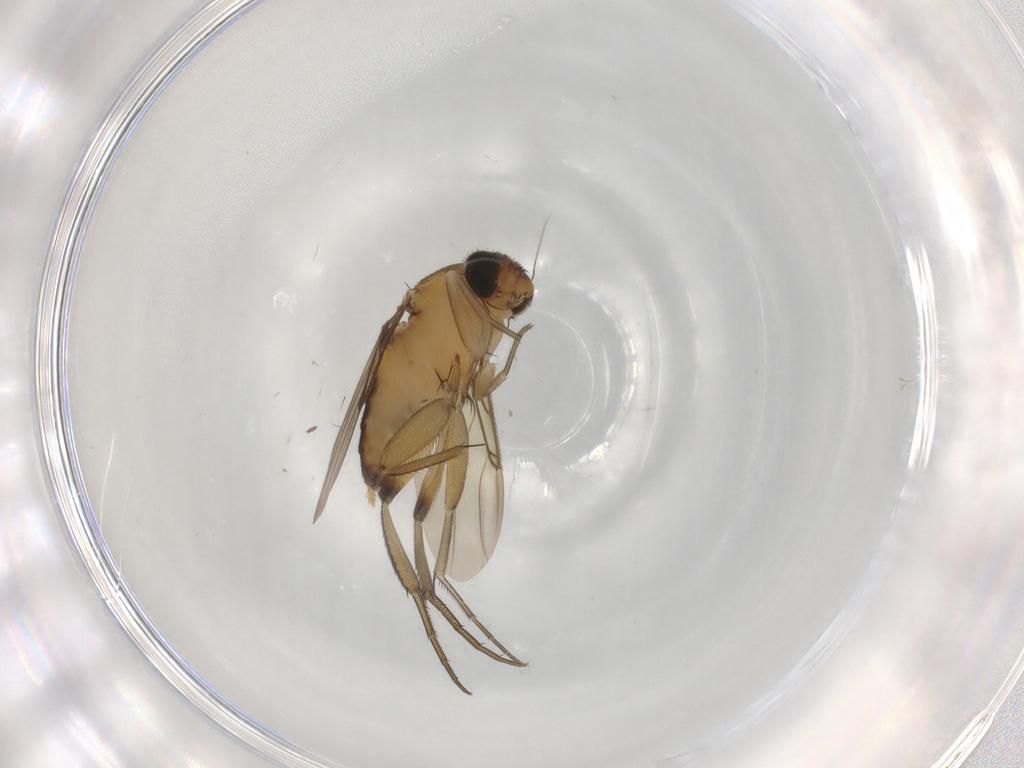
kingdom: Animalia
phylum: Arthropoda
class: Insecta
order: Diptera
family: Phoridae
